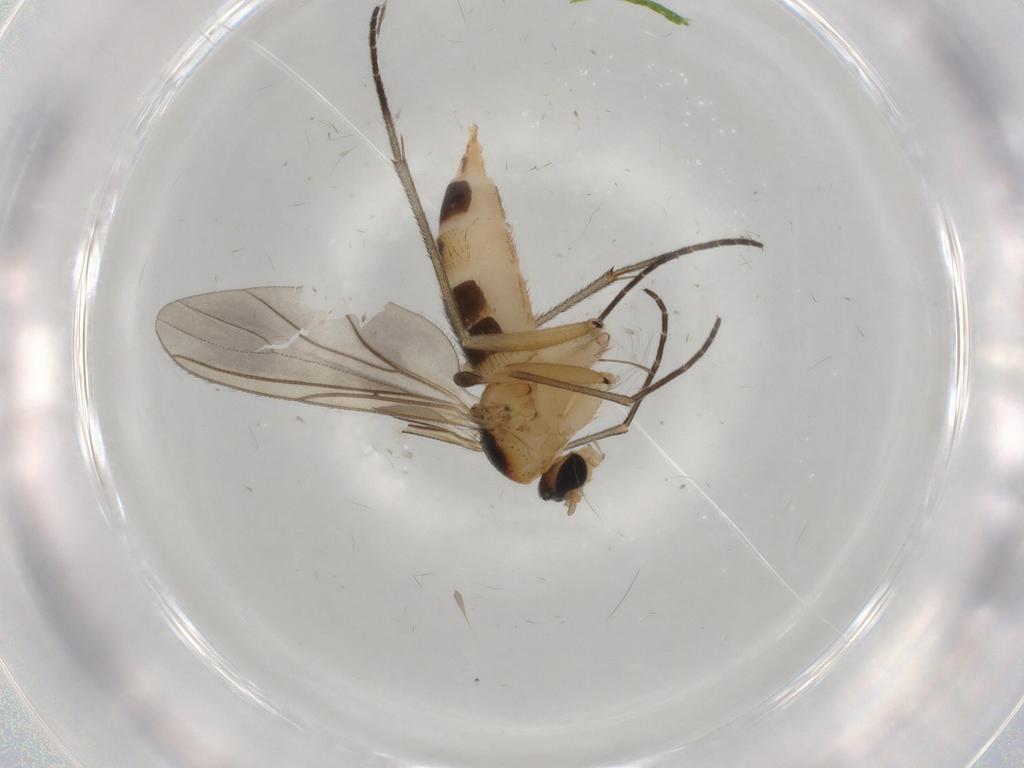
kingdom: Animalia
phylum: Arthropoda
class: Insecta
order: Diptera
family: Sciaridae
